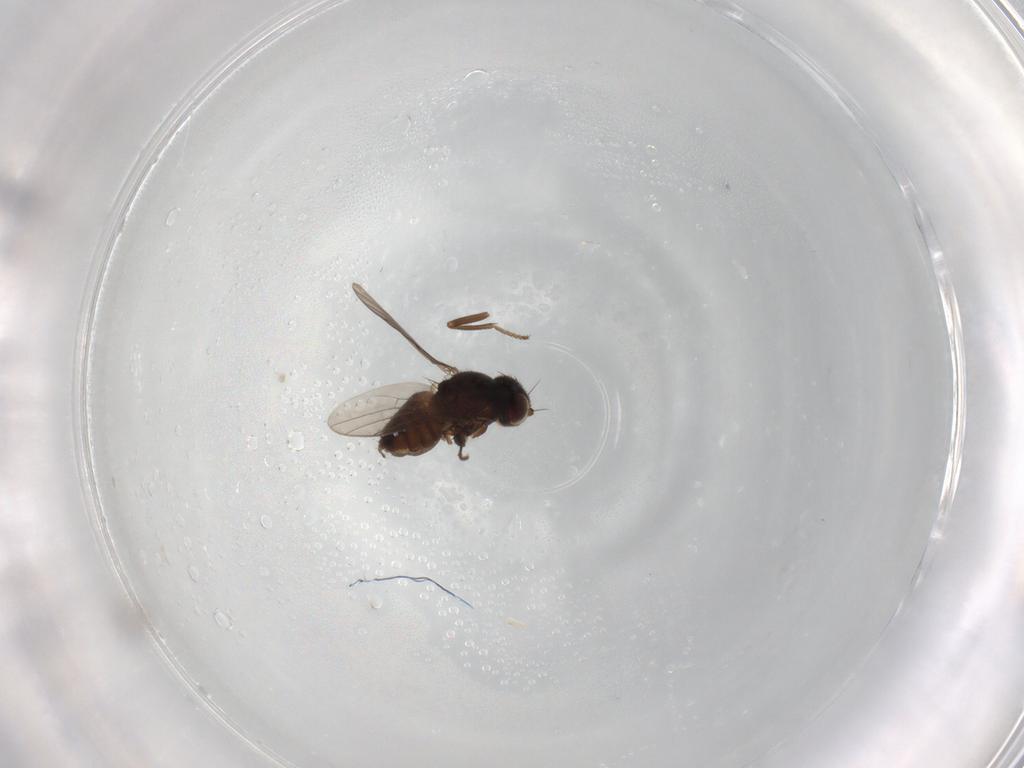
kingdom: Animalia
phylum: Arthropoda
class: Insecta
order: Diptera
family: Chloropidae
